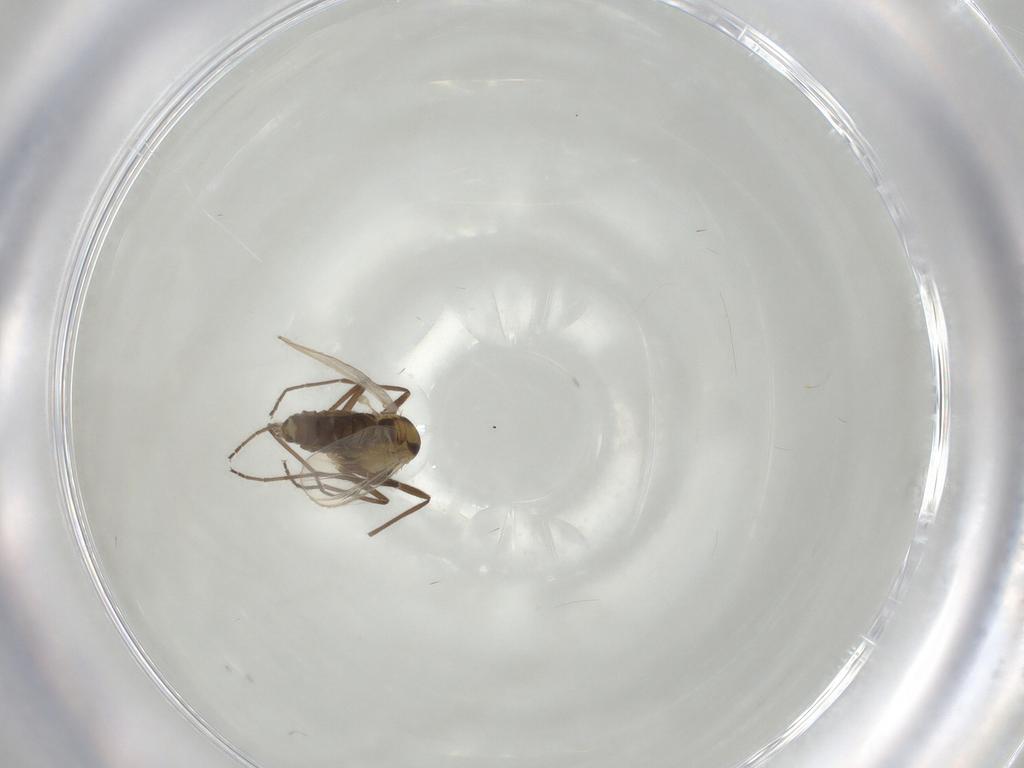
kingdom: Animalia
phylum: Arthropoda
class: Insecta
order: Diptera
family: Chironomidae
